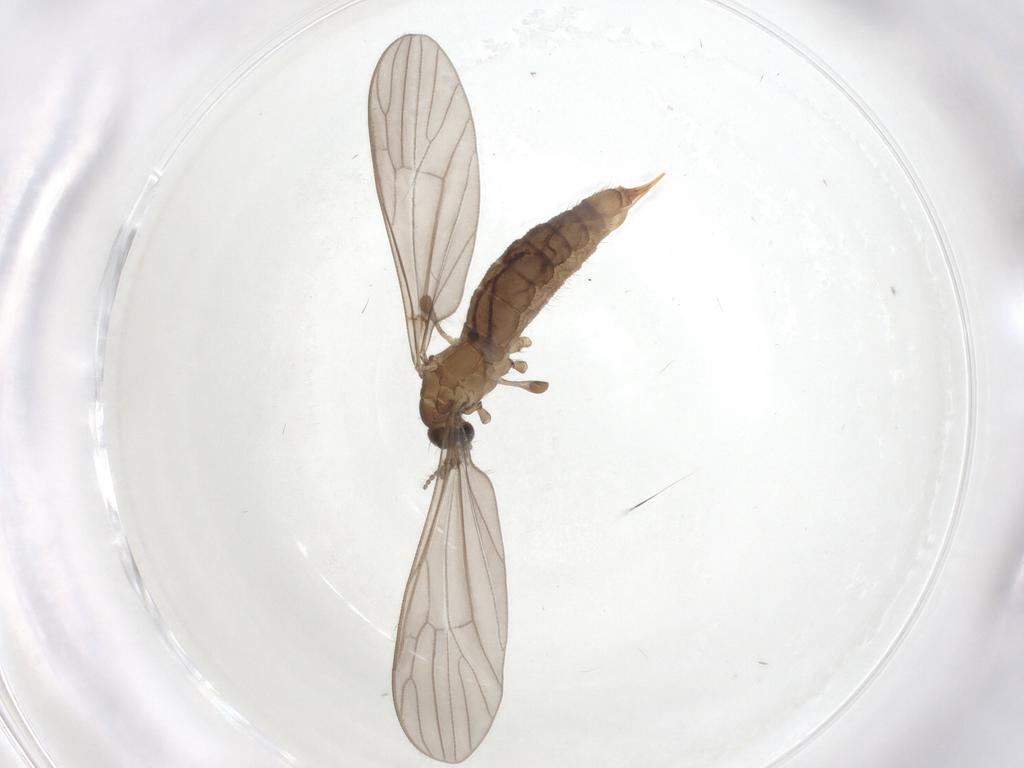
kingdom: Animalia
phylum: Arthropoda
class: Insecta
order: Diptera
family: Limoniidae
